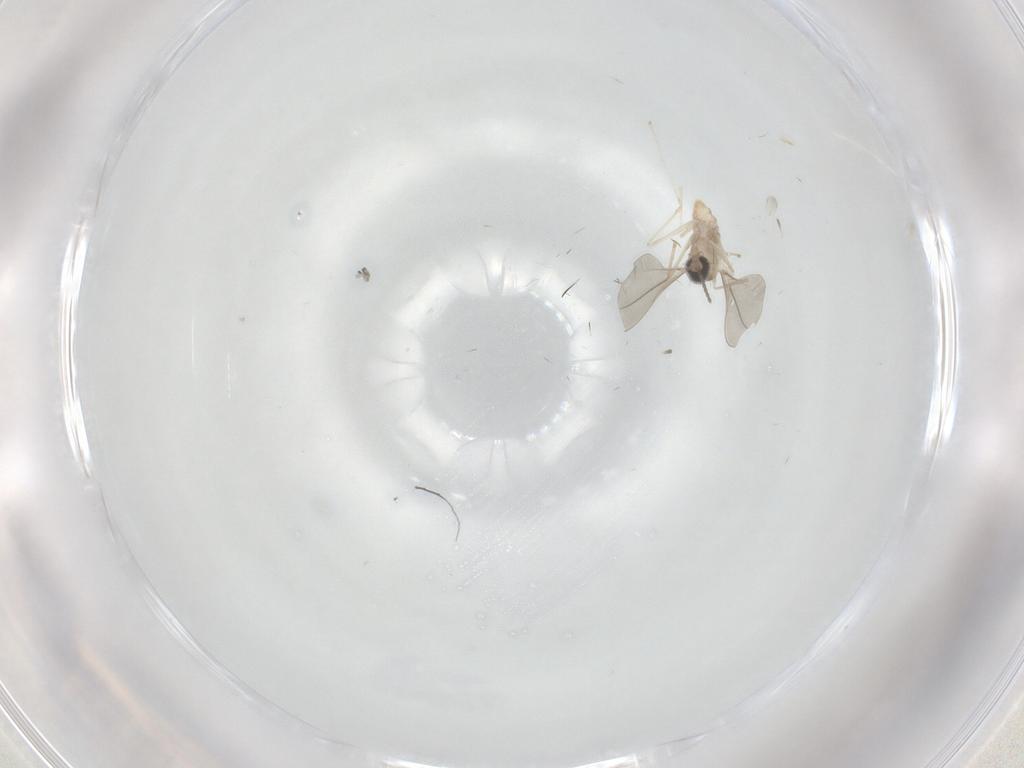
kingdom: Animalia
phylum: Arthropoda
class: Insecta
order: Diptera
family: Cecidomyiidae
